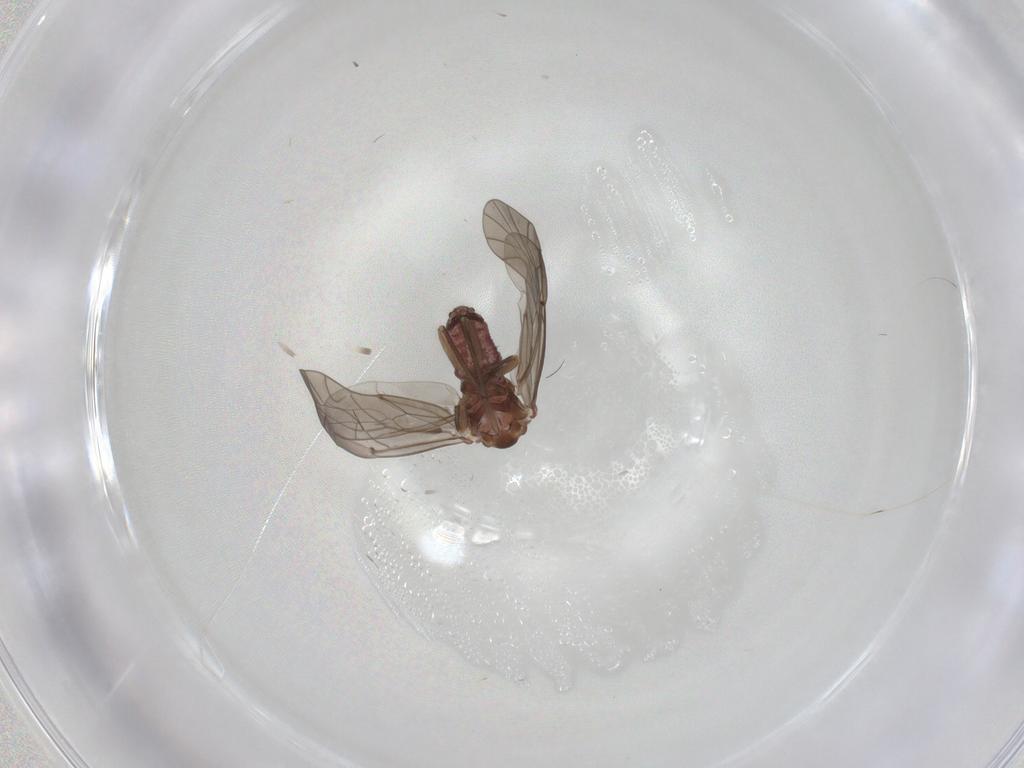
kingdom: Animalia
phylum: Arthropoda
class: Insecta
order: Psocodea
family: Lachesillidae
